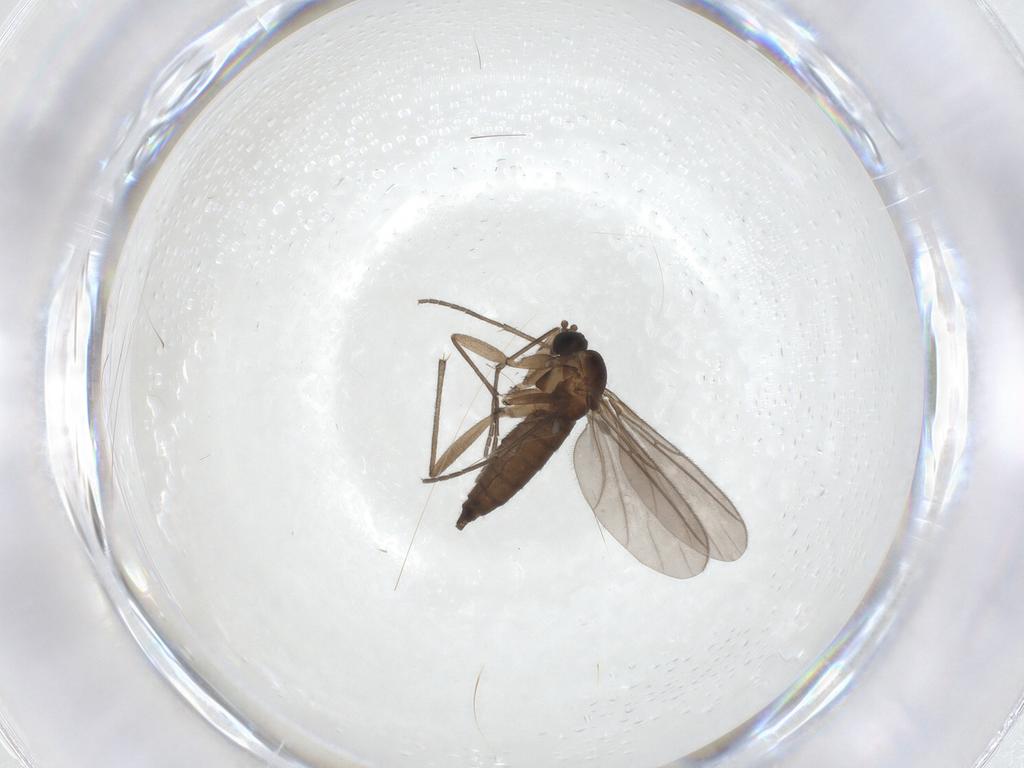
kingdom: Animalia
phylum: Arthropoda
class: Insecta
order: Diptera
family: Sciaridae
